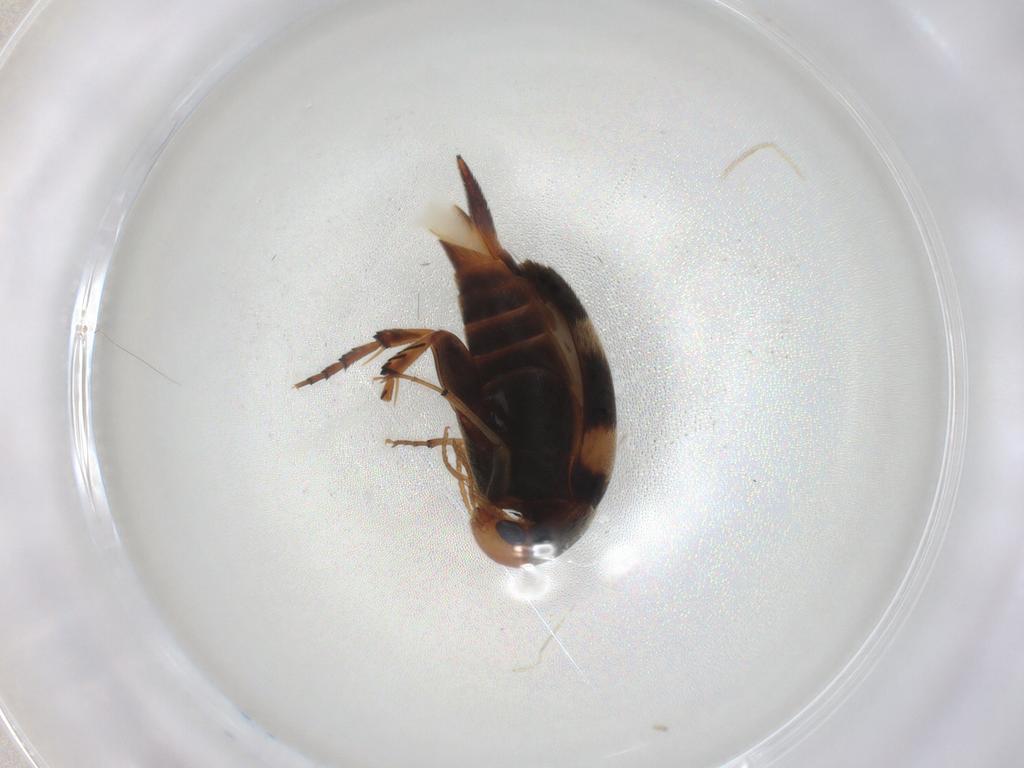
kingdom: Animalia
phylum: Arthropoda
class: Insecta
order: Coleoptera
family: Mordellidae
